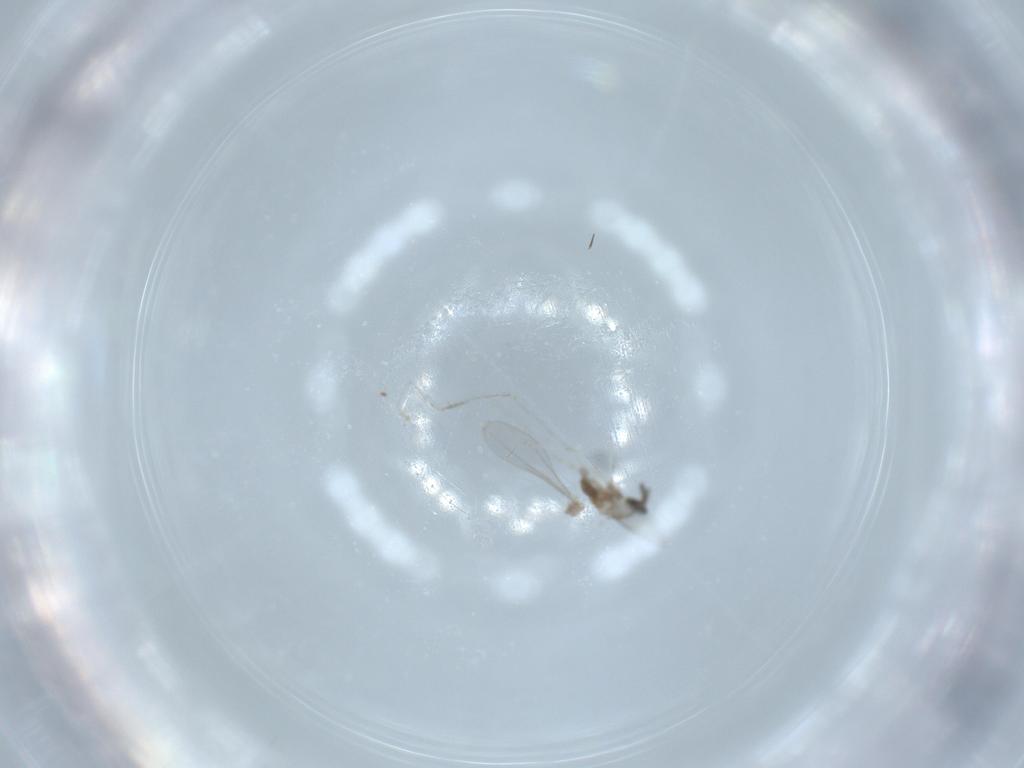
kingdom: Animalia
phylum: Arthropoda
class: Insecta
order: Diptera
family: Cecidomyiidae
